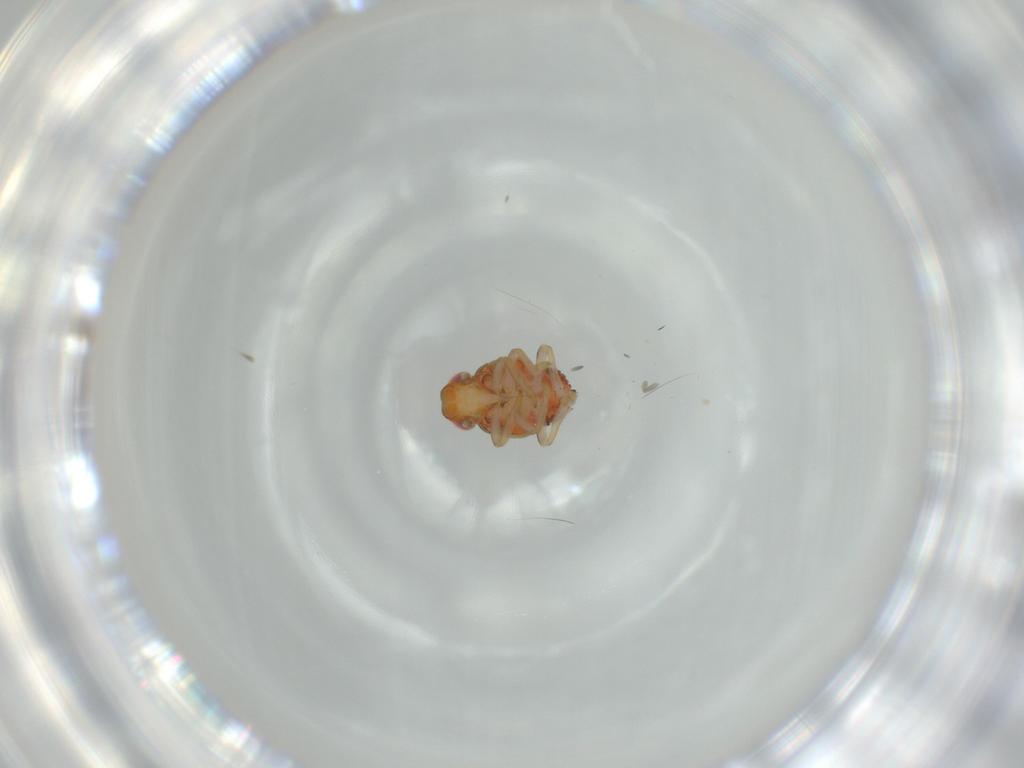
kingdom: Animalia
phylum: Arthropoda
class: Insecta
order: Hemiptera
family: Issidae
